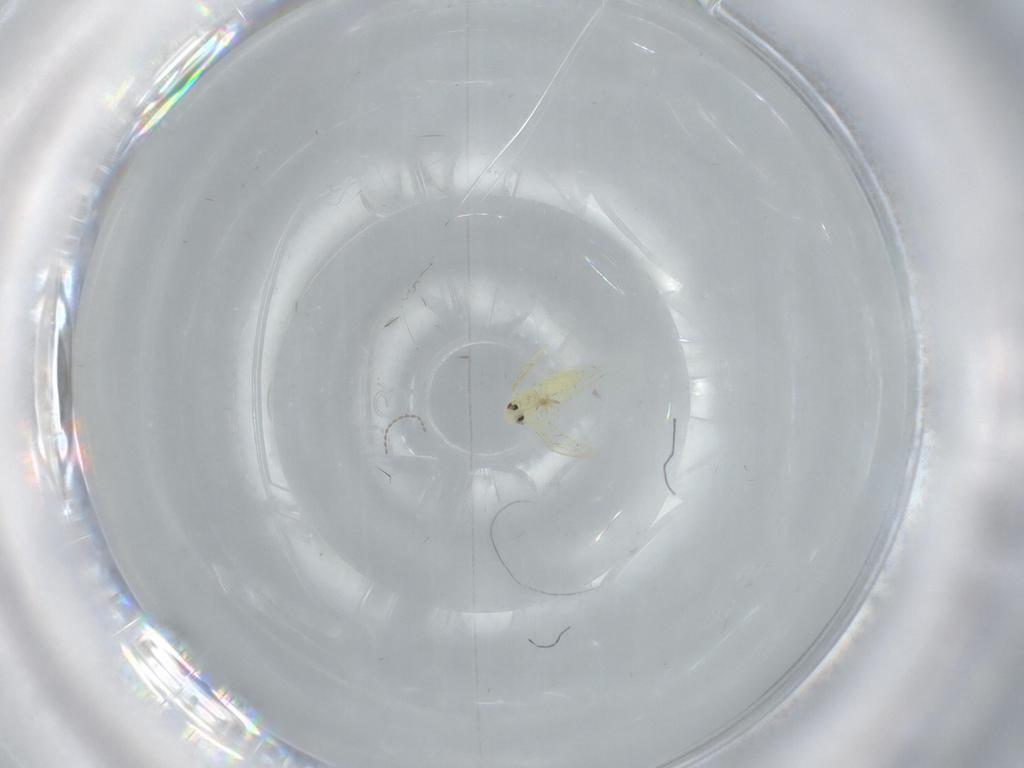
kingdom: Animalia
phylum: Arthropoda
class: Insecta
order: Hemiptera
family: Aleyrodidae
